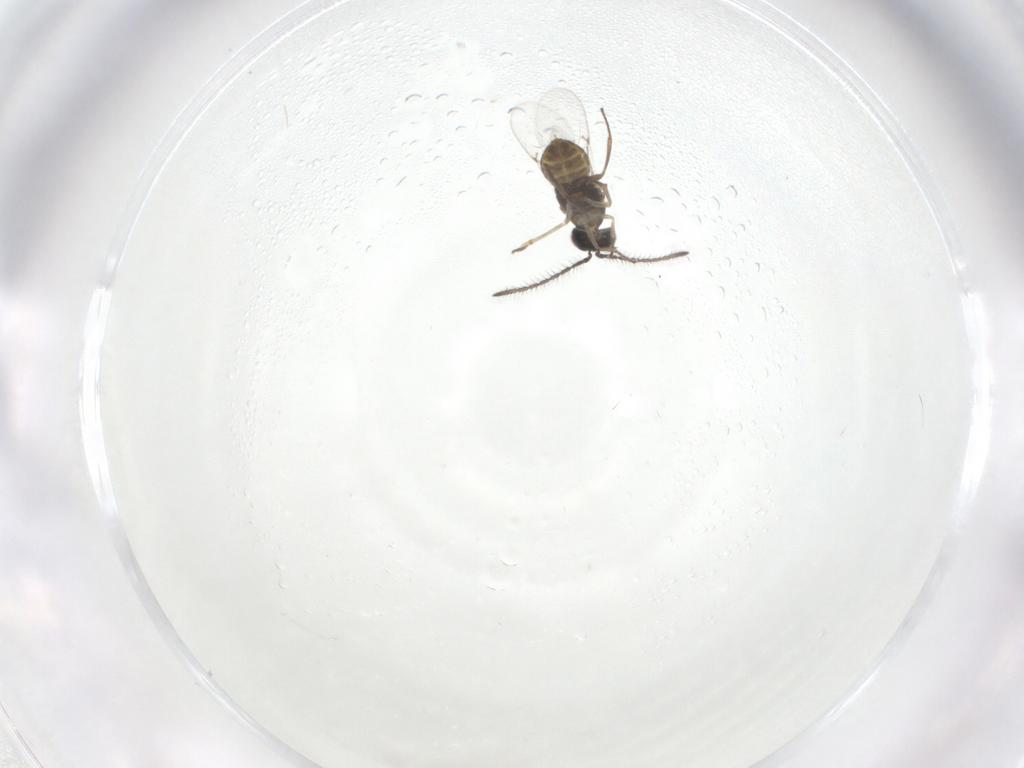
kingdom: Animalia
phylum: Arthropoda
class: Insecta
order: Hymenoptera
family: Encyrtidae
